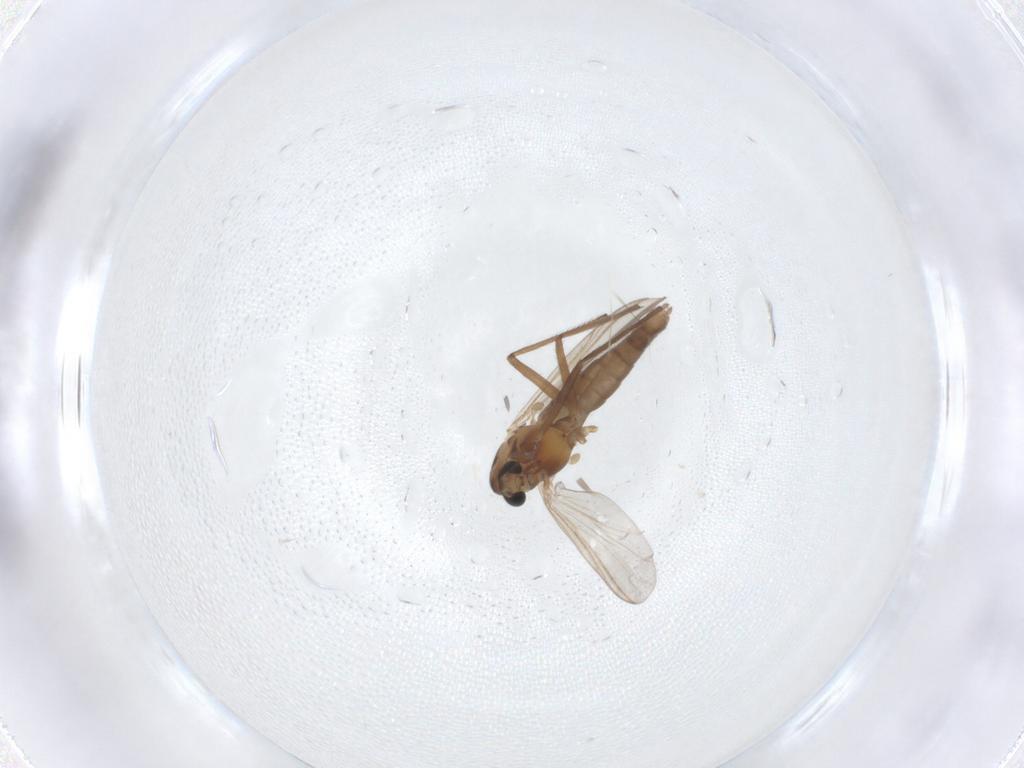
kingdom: Animalia
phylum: Arthropoda
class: Insecta
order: Diptera
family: Chironomidae
